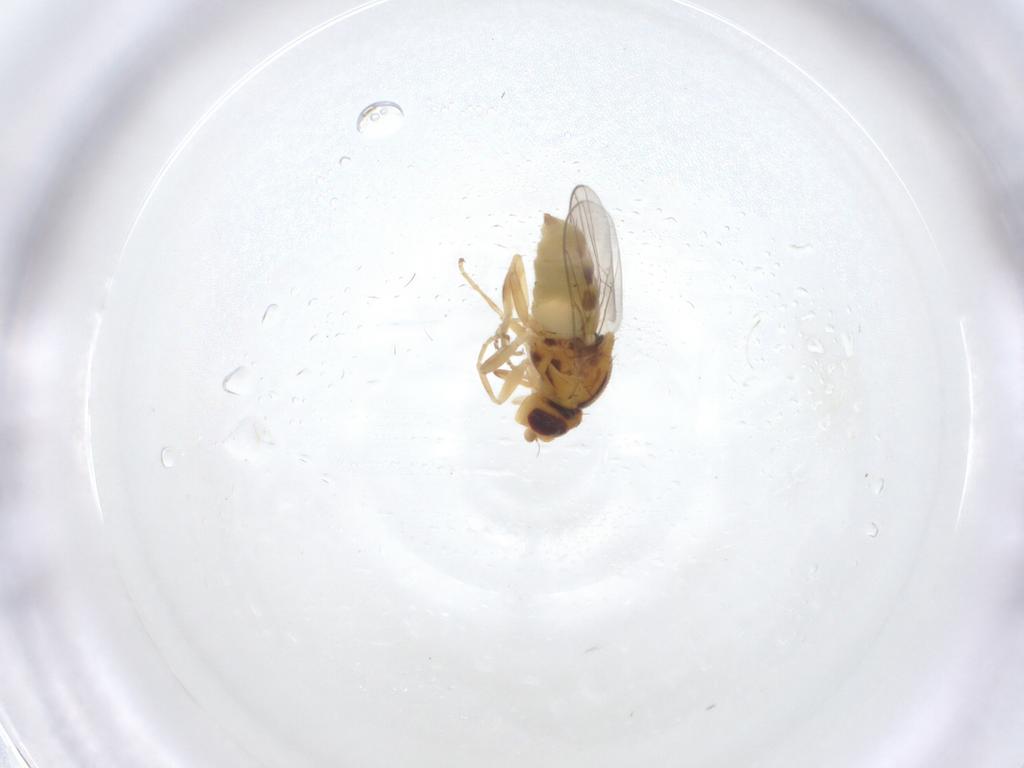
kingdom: Animalia
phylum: Arthropoda
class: Insecta
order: Diptera
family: Chloropidae
